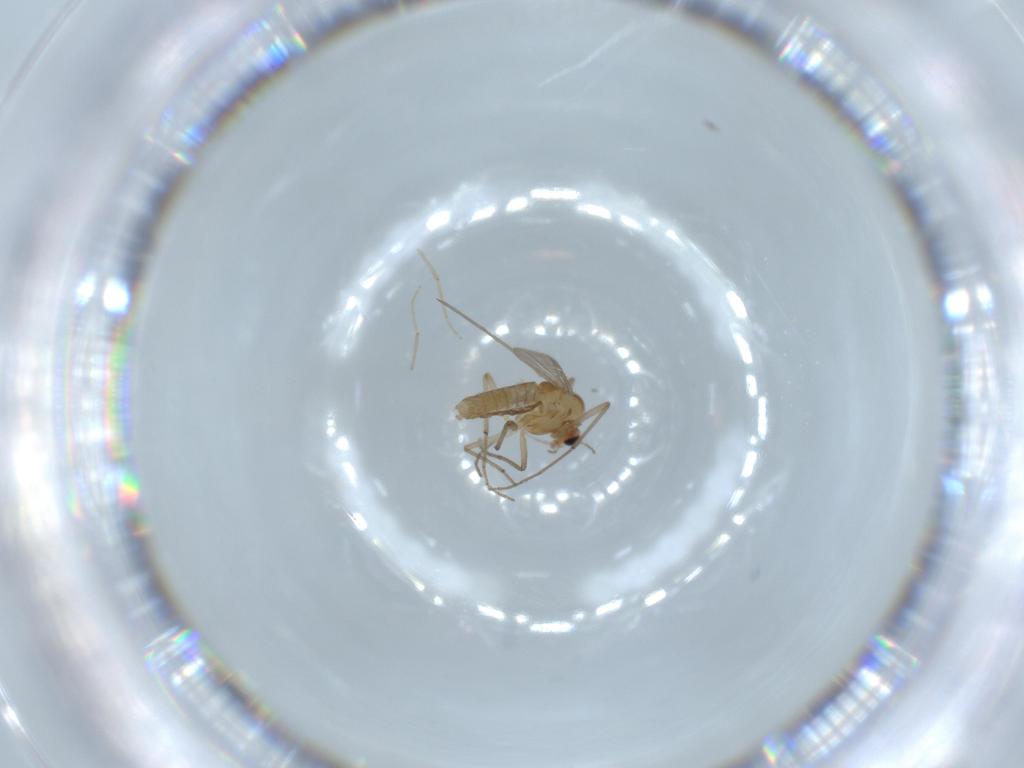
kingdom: Animalia
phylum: Arthropoda
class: Insecta
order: Diptera
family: Chironomidae
